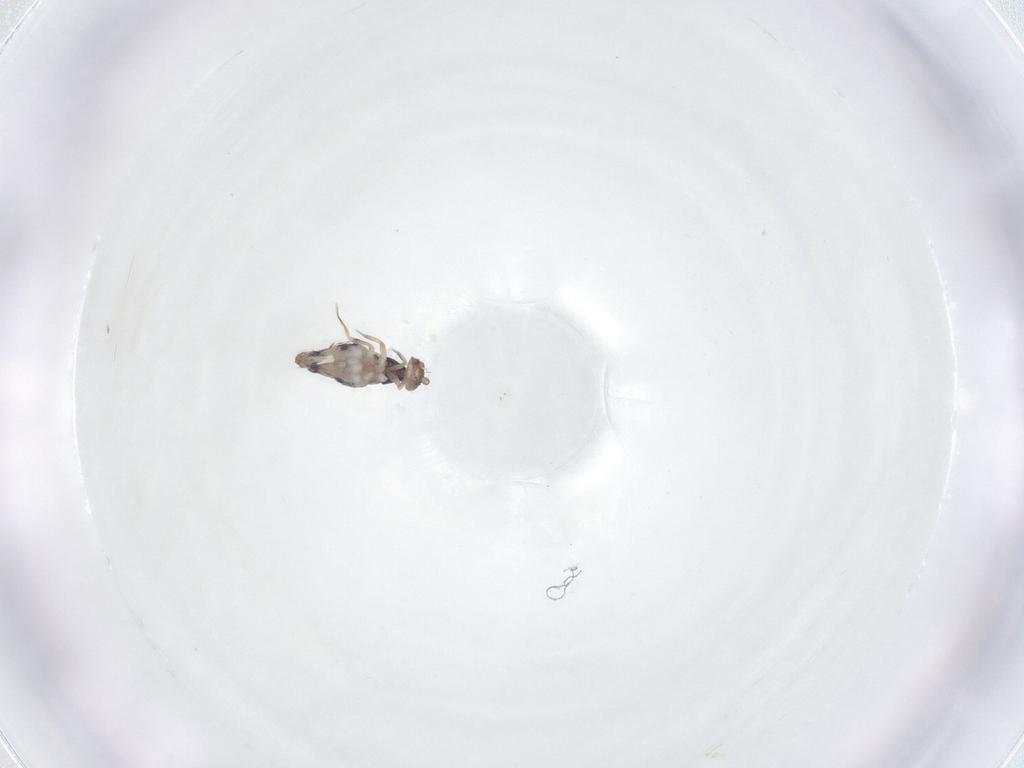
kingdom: Animalia
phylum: Arthropoda
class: Collembola
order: Entomobryomorpha
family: Entomobryidae
